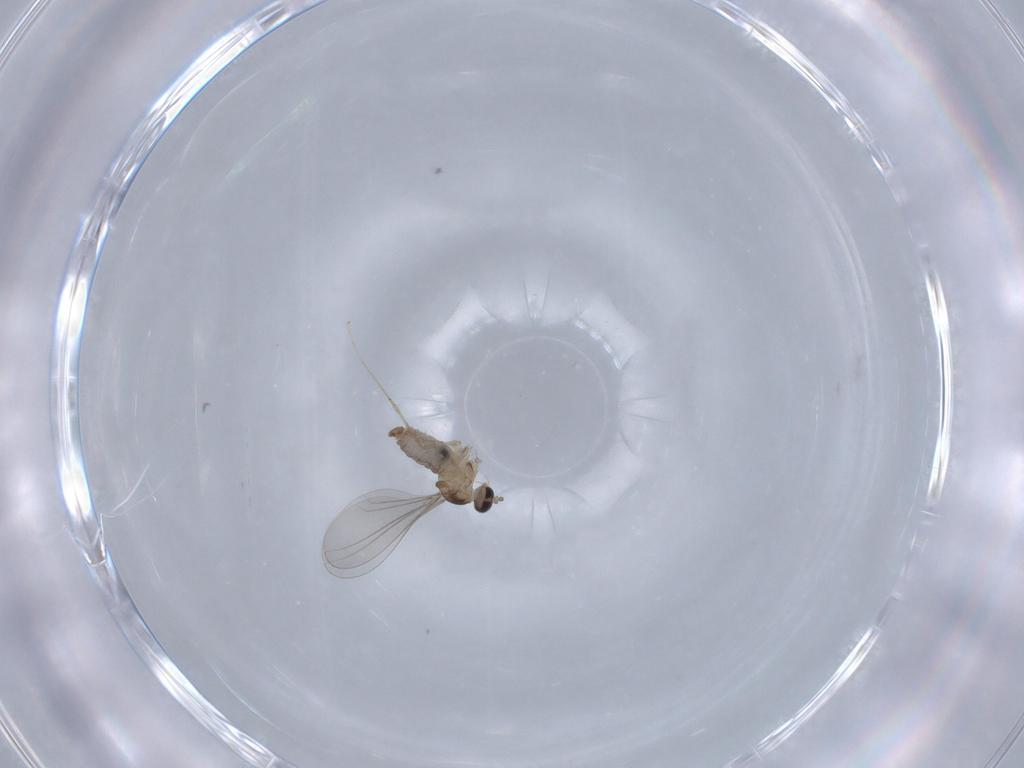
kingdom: Animalia
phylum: Arthropoda
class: Insecta
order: Diptera
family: Cecidomyiidae
